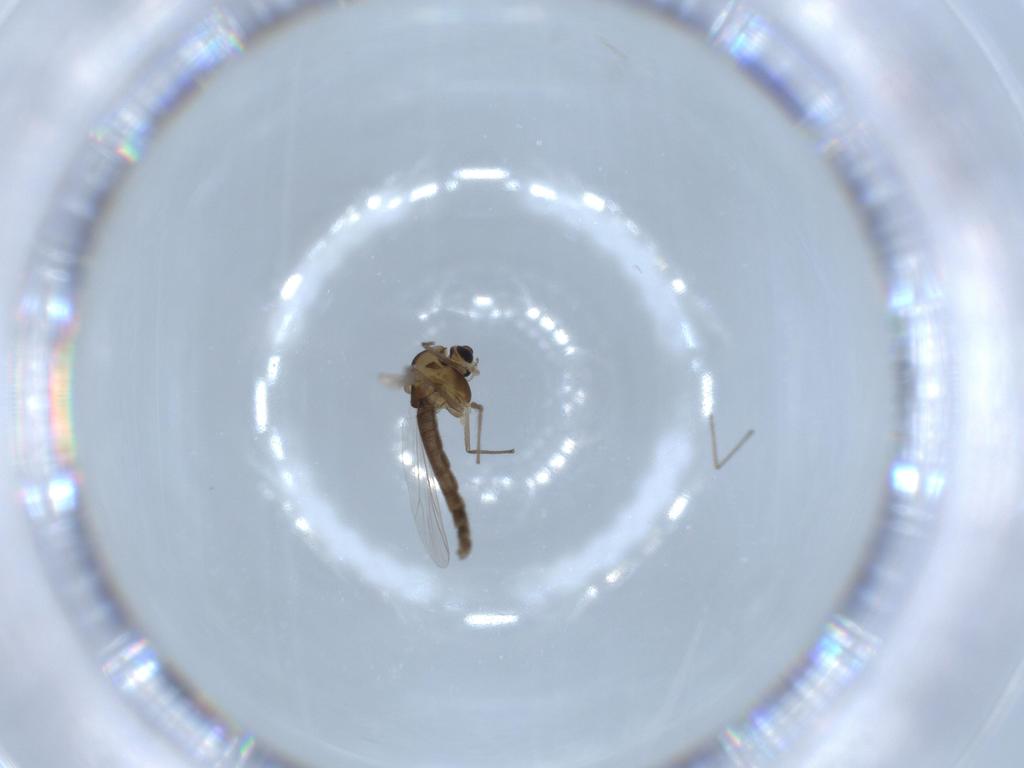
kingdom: Animalia
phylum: Arthropoda
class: Insecta
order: Diptera
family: Chironomidae
